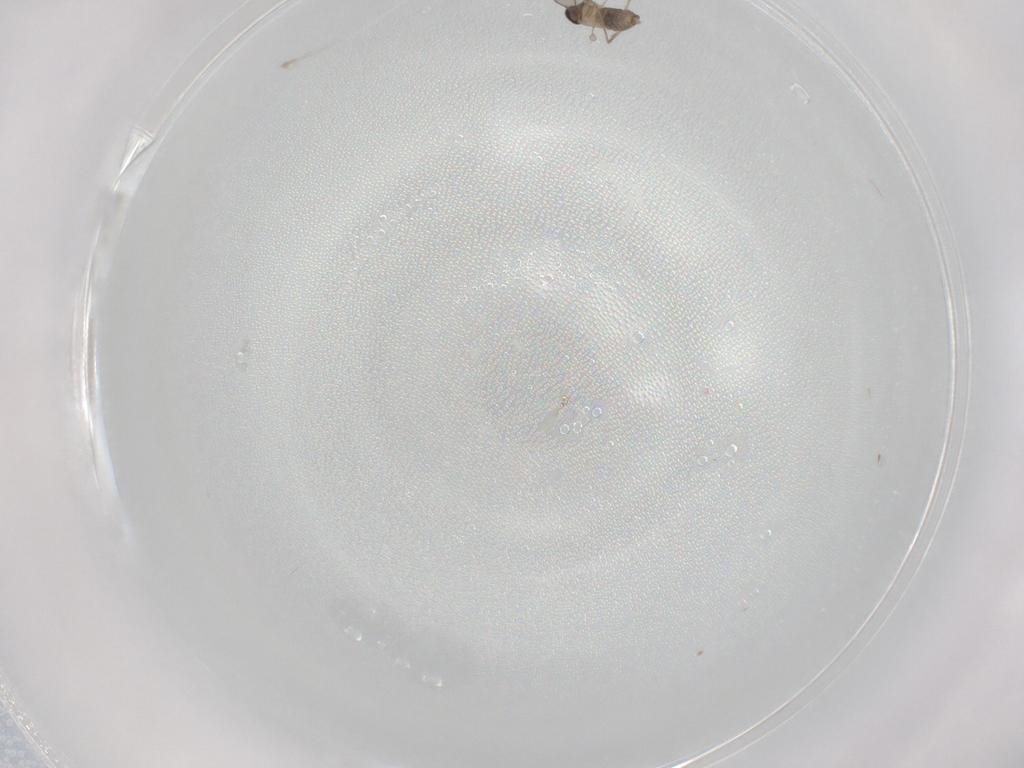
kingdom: Animalia
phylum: Arthropoda
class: Insecta
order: Diptera
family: Cecidomyiidae
